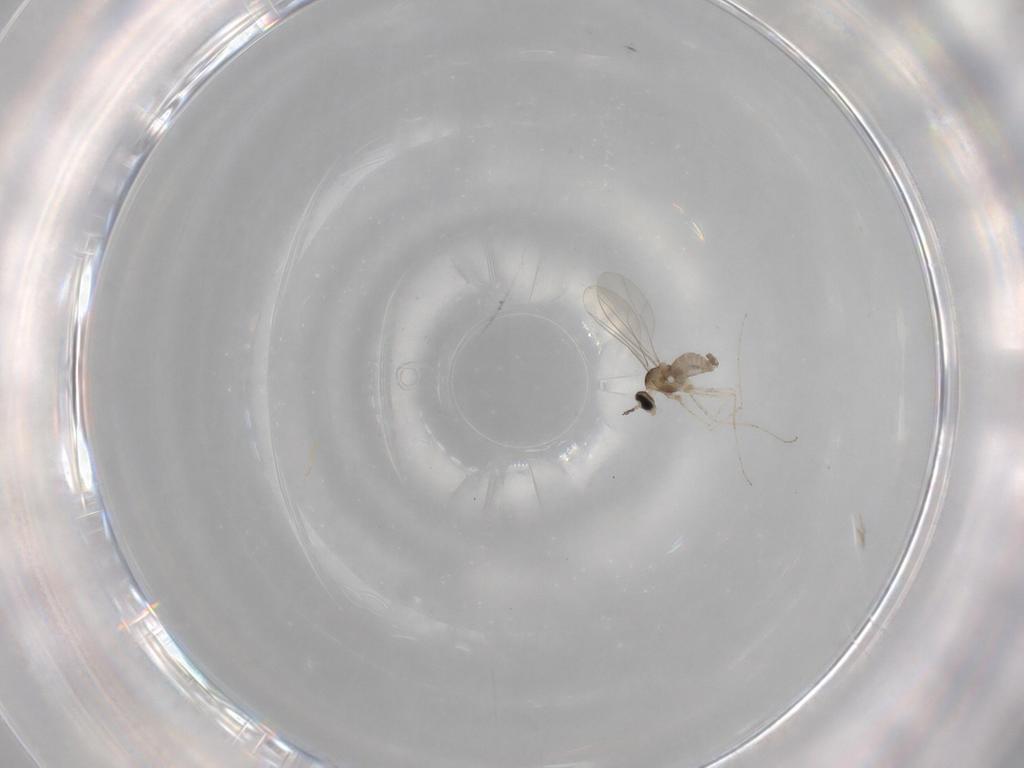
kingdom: Animalia
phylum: Arthropoda
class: Insecta
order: Diptera
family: Cecidomyiidae
